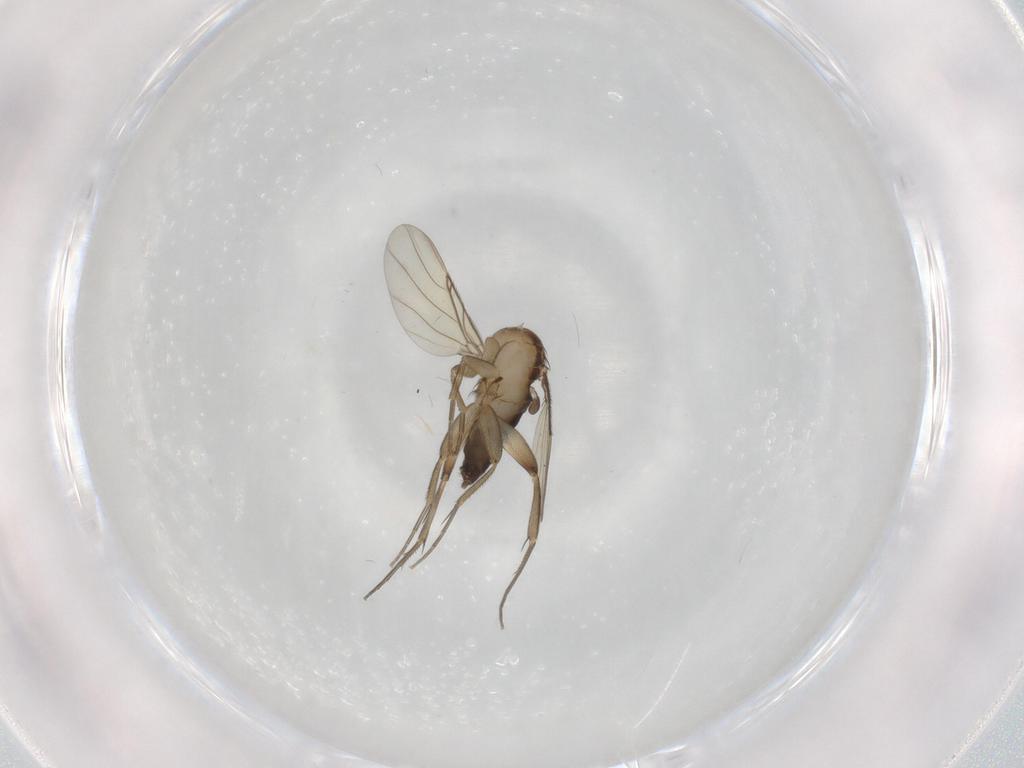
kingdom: Animalia
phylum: Arthropoda
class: Insecta
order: Diptera
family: Phoridae
